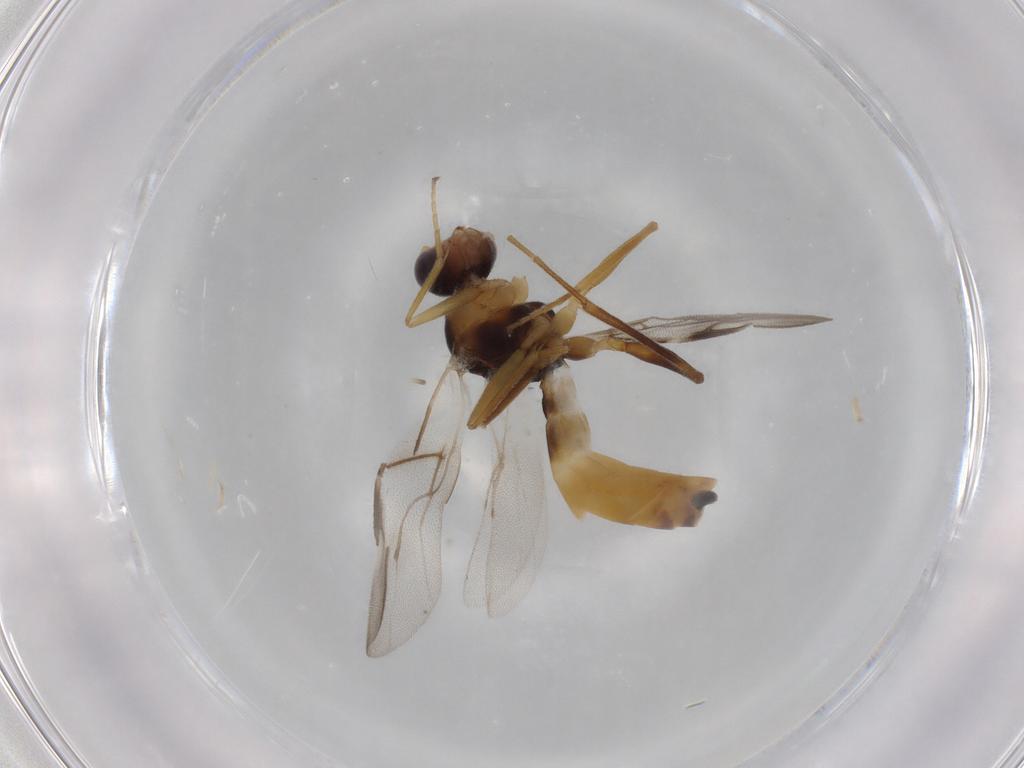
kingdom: Animalia
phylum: Arthropoda
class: Insecta
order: Hymenoptera
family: Braconidae
